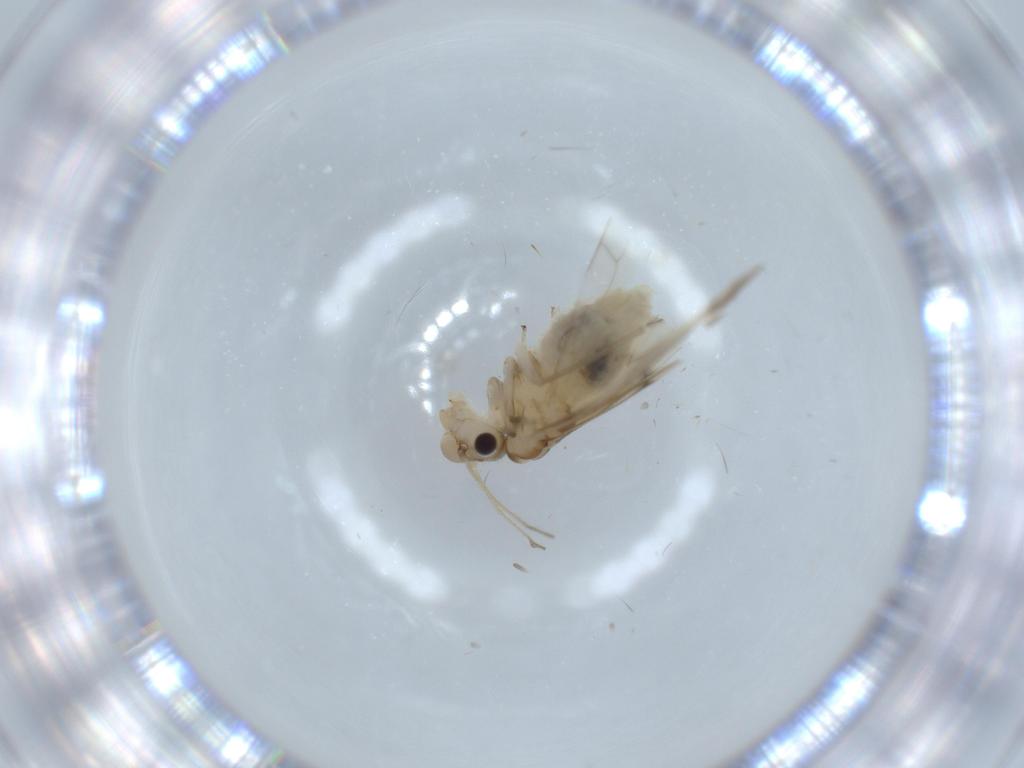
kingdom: Animalia
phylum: Arthropoda
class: Insecta
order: Psocodea
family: Caeciliusidae
